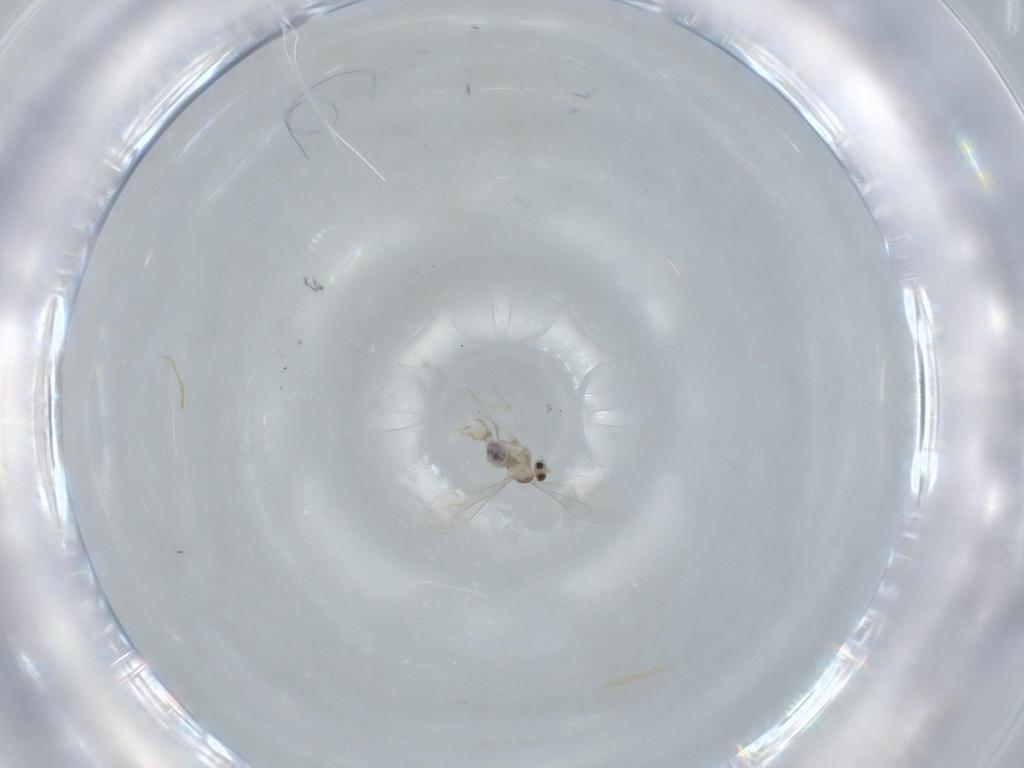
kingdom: Animalia
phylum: Arthropoda
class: Insecta
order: Diptera
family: Cecidomyiidae
